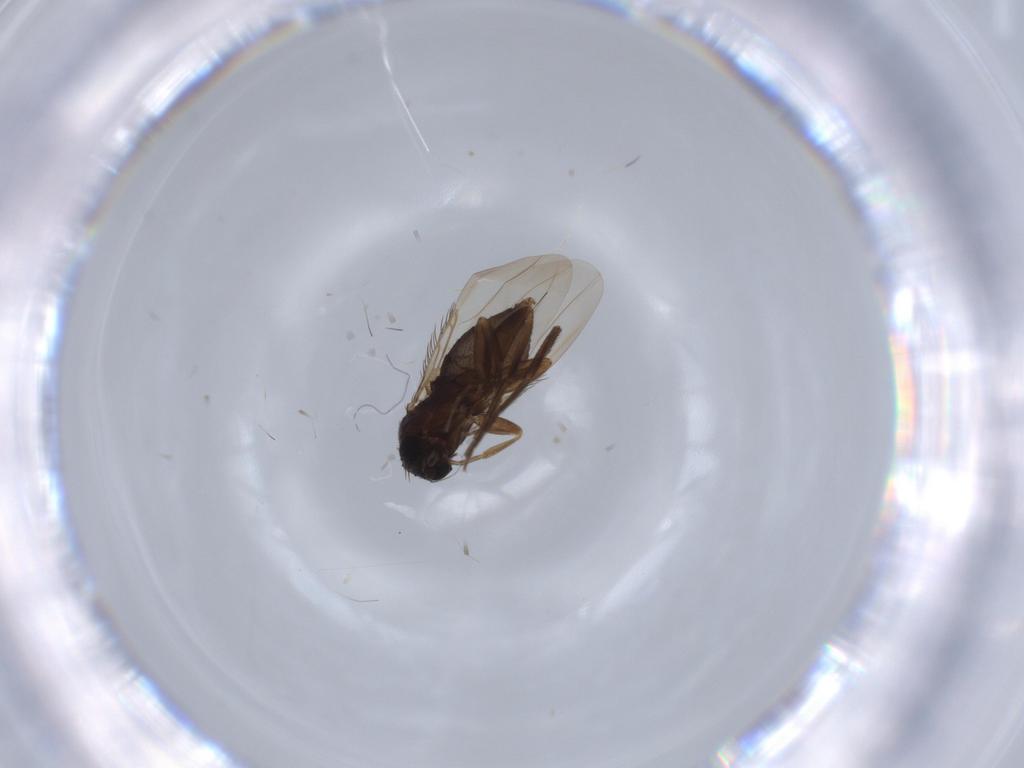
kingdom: Animalia
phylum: Arthropoda
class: Insecta
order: Diptera
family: Phoridae
